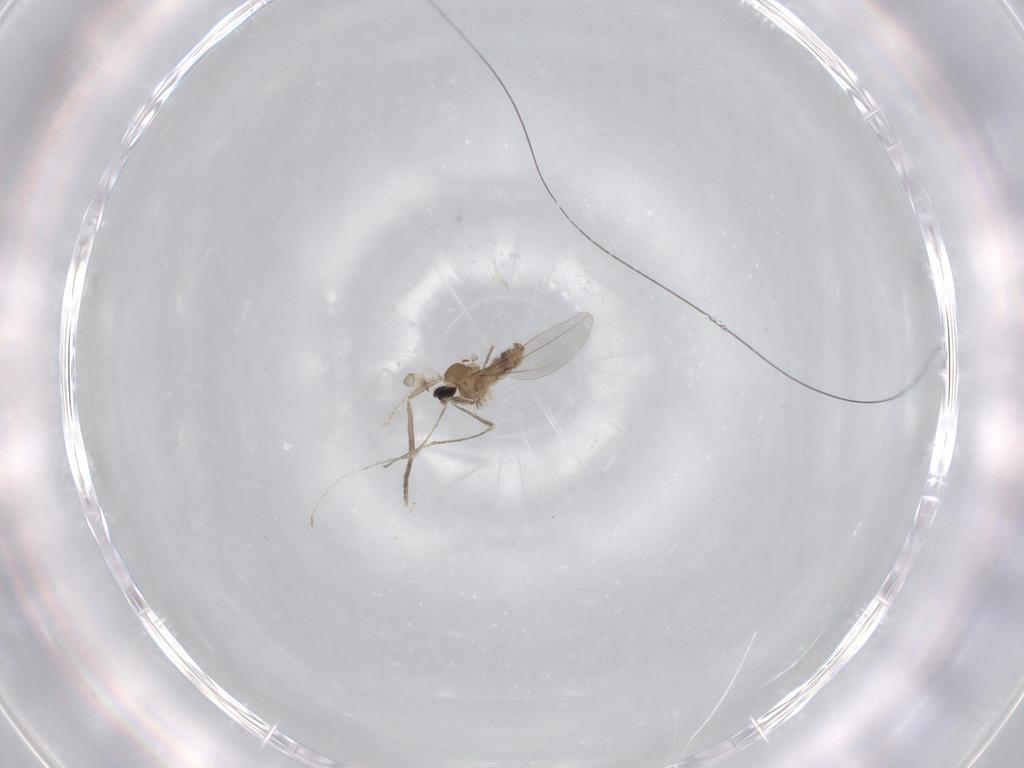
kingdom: Animalia
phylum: Arthropoda
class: Insecta
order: Diptera
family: Cecidomyiidae
